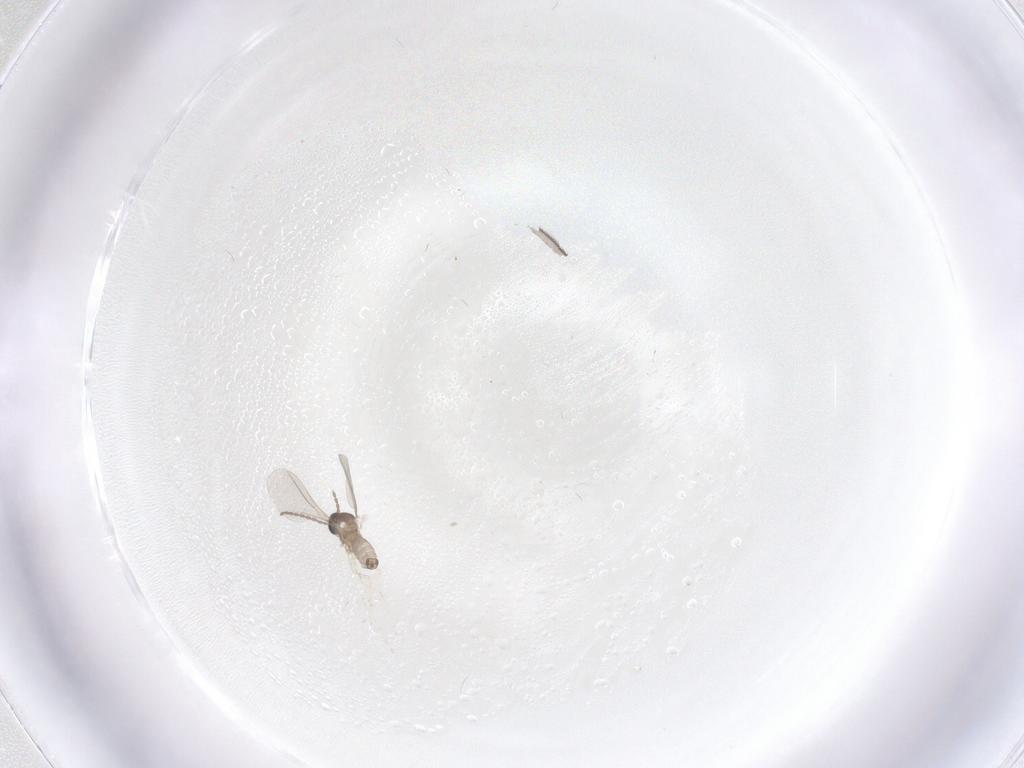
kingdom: Animalia
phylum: Arthropoda
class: Insecta
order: Diptera
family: Cecidomyiidae
